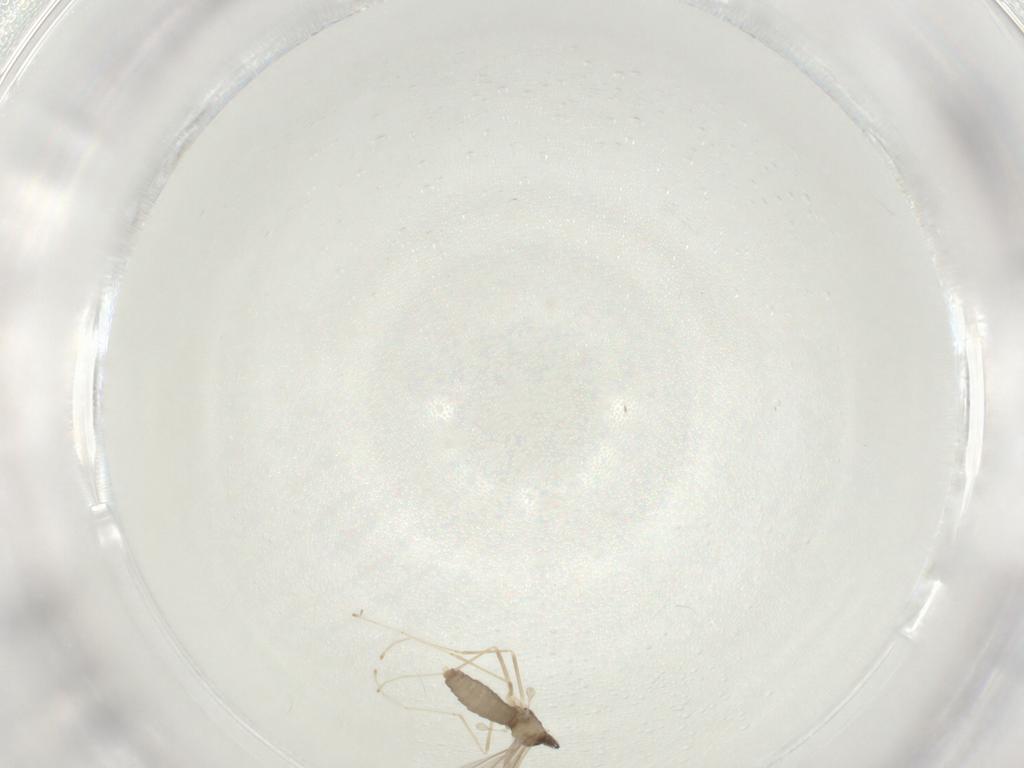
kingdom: Animalia
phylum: Arthropoda
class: Insecta
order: Diptera
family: Cecidomyiidae
